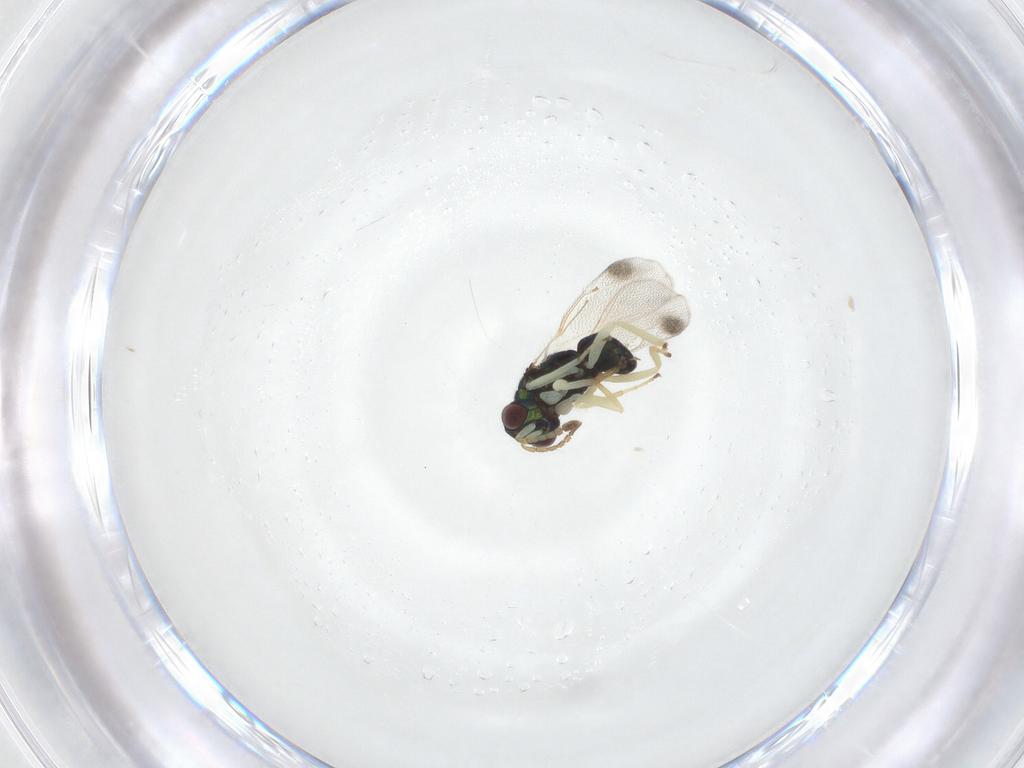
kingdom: Animalia
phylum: Arthropoda
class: Insecta
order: Hymenoptera
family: Eulophidae
